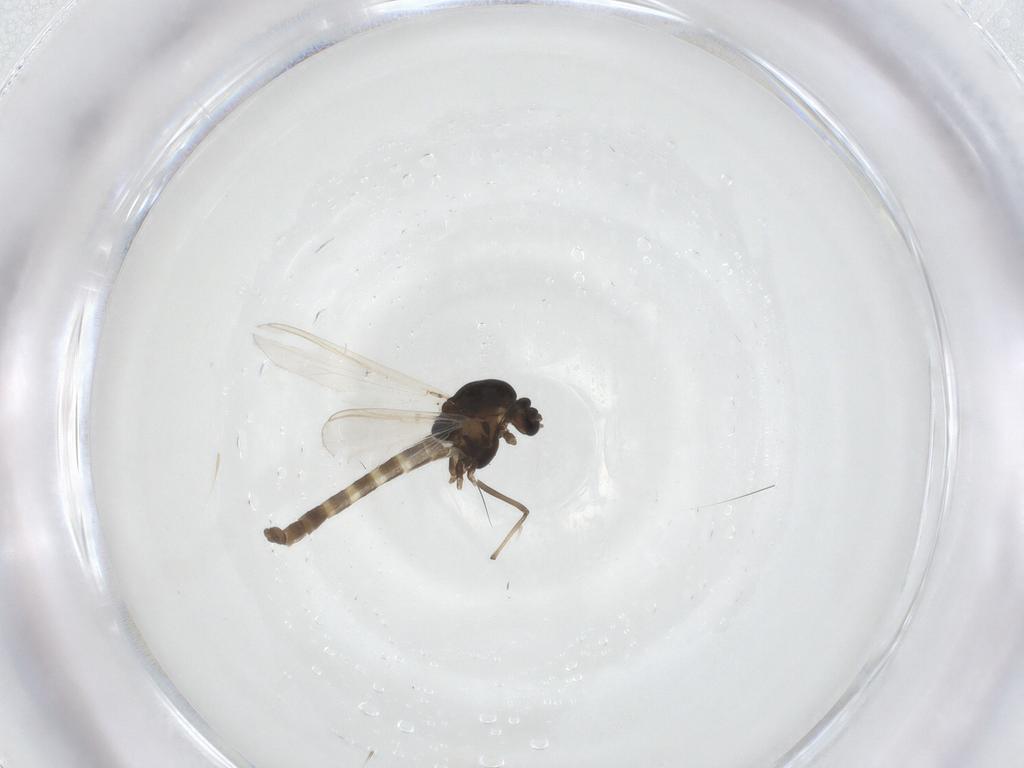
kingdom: Animalia
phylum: Arthropoda
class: Insecta
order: Diptera
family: Chironomidae
